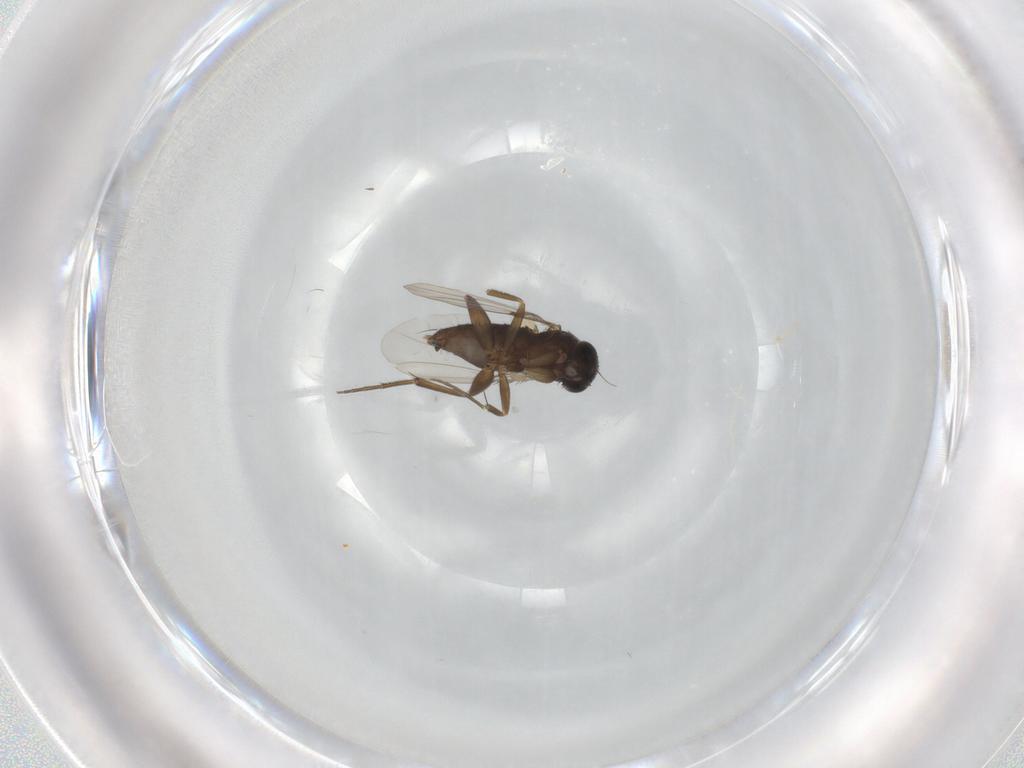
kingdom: Animalia
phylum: Arthropoda
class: Insecta
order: Diptera
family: Phoridae
